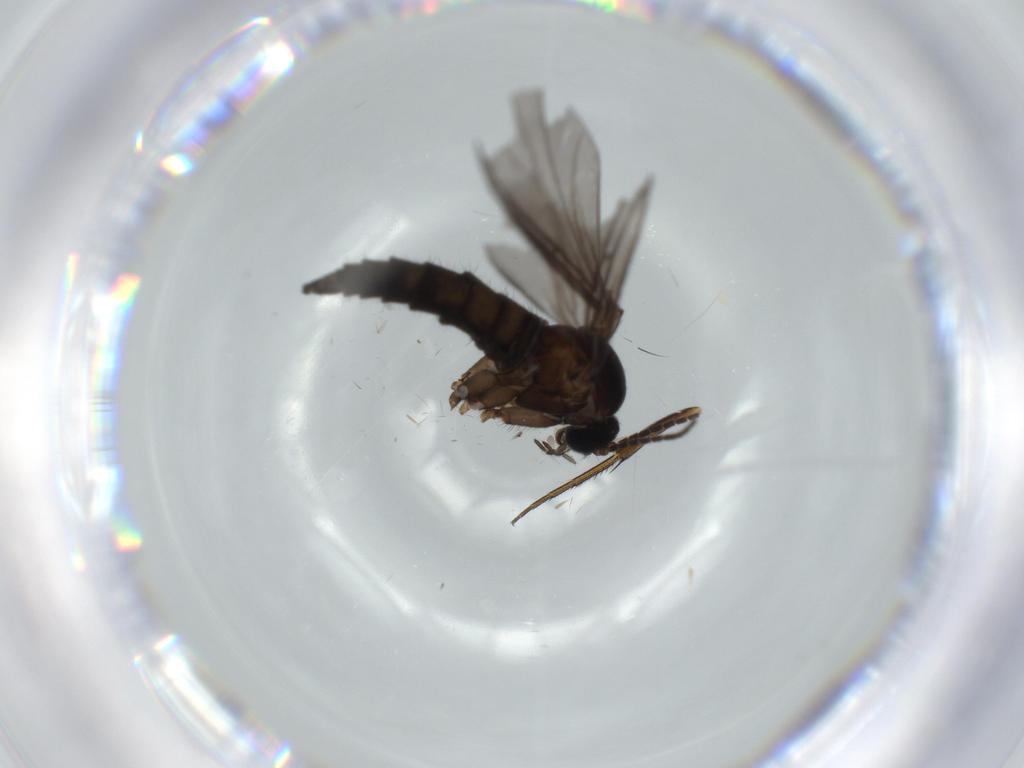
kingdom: Animalia
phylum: Arthropoda
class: Insecta
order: Diptera
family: Sciaridae
